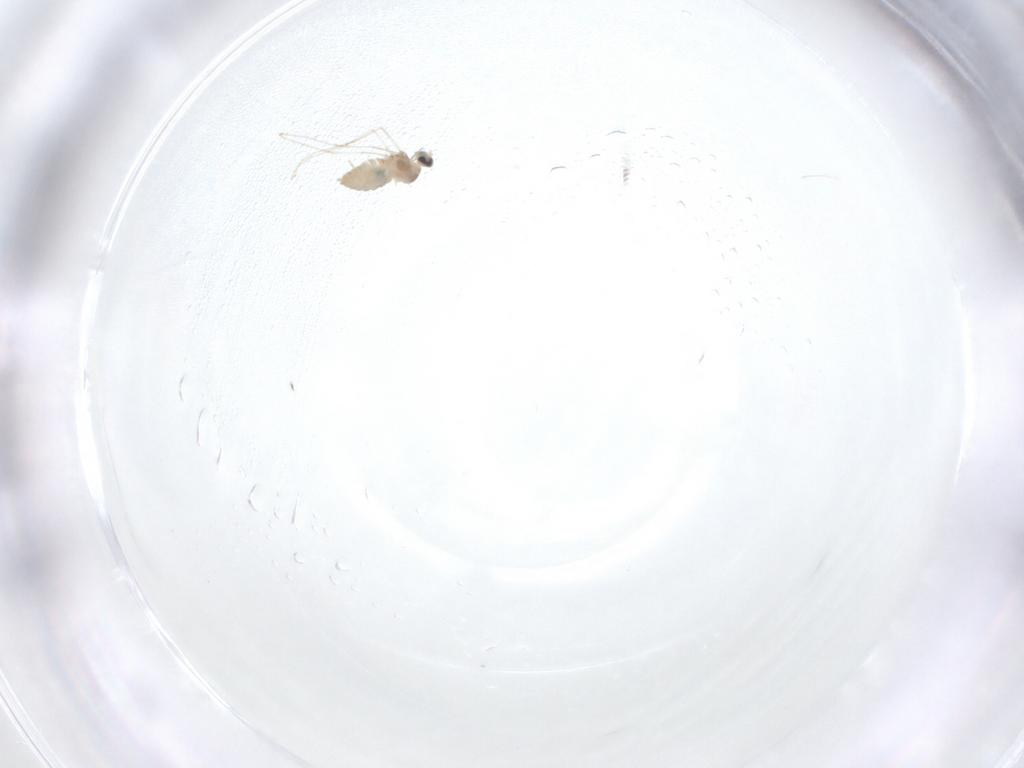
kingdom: Animalia
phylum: Arthropoda
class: Insecta
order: Diptera
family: Cecidomyiidae
